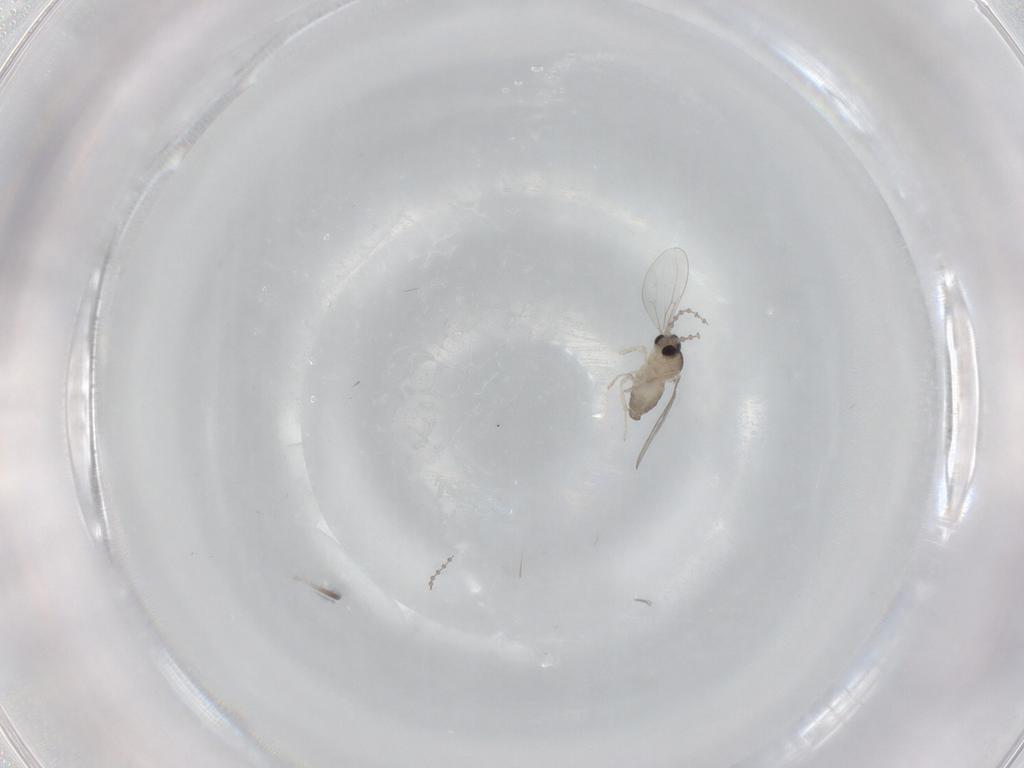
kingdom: Animalia
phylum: Arthropoda
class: Insecta
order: Diptera
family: Cecidomyiidae
